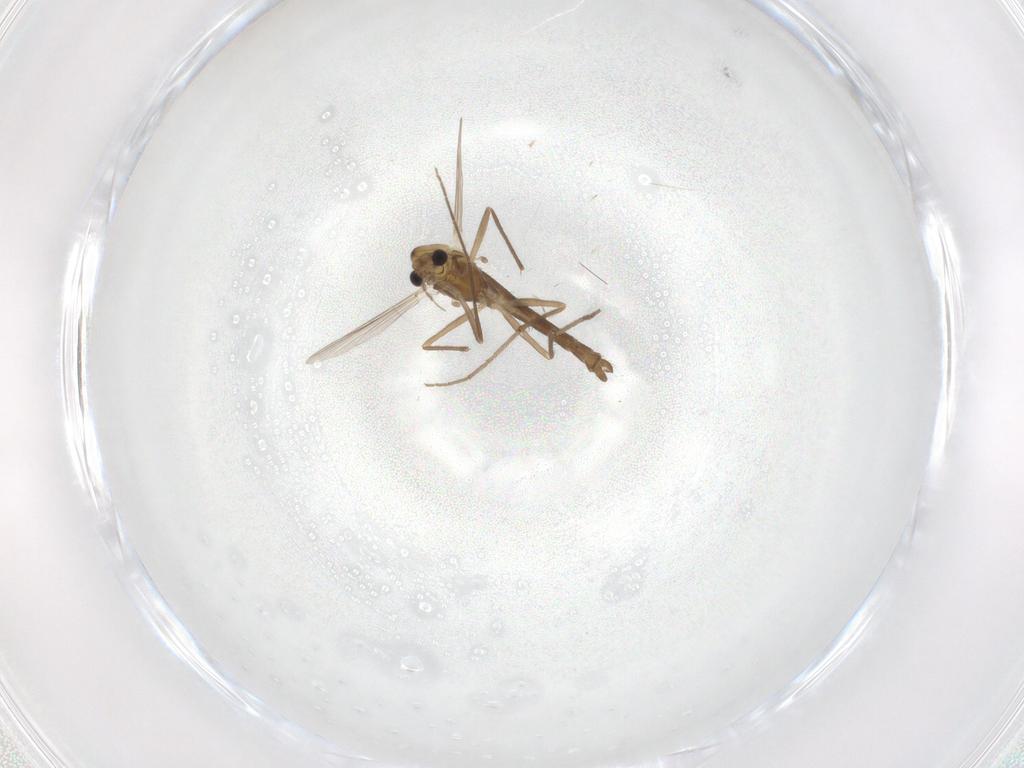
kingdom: Animalia
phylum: Arthropoda
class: Insecta
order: Diptera
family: Chironomidae
